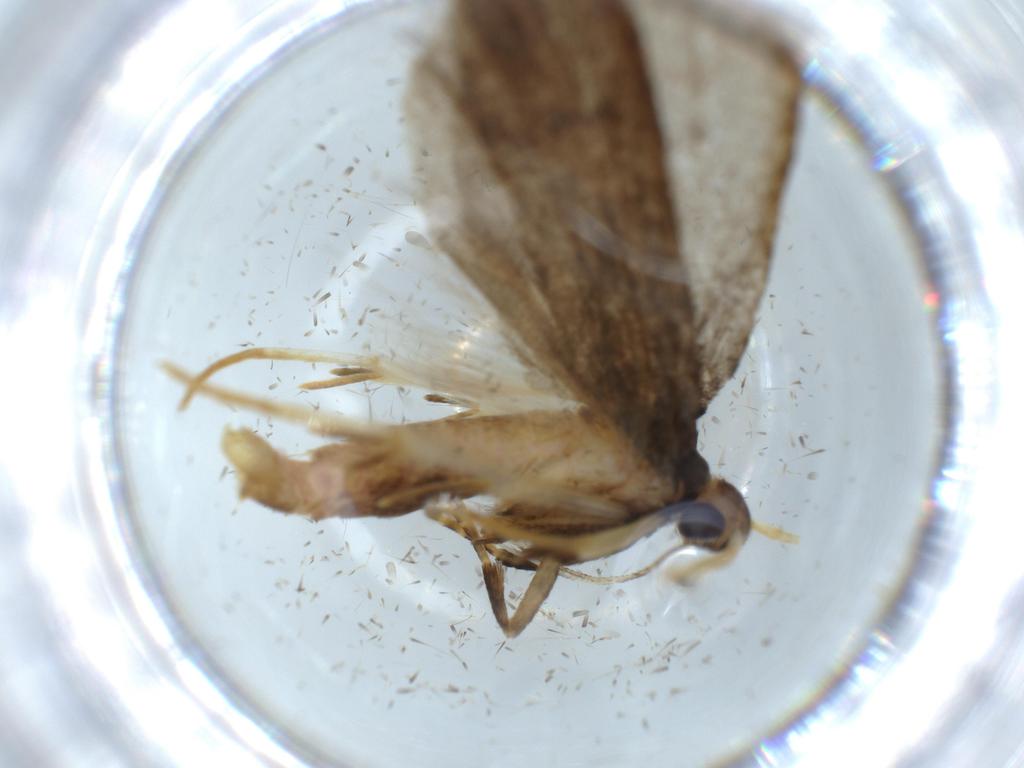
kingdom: Animalia
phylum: Arthropoda
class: Insecta
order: Lepidoptera
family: Lecithoceridae
